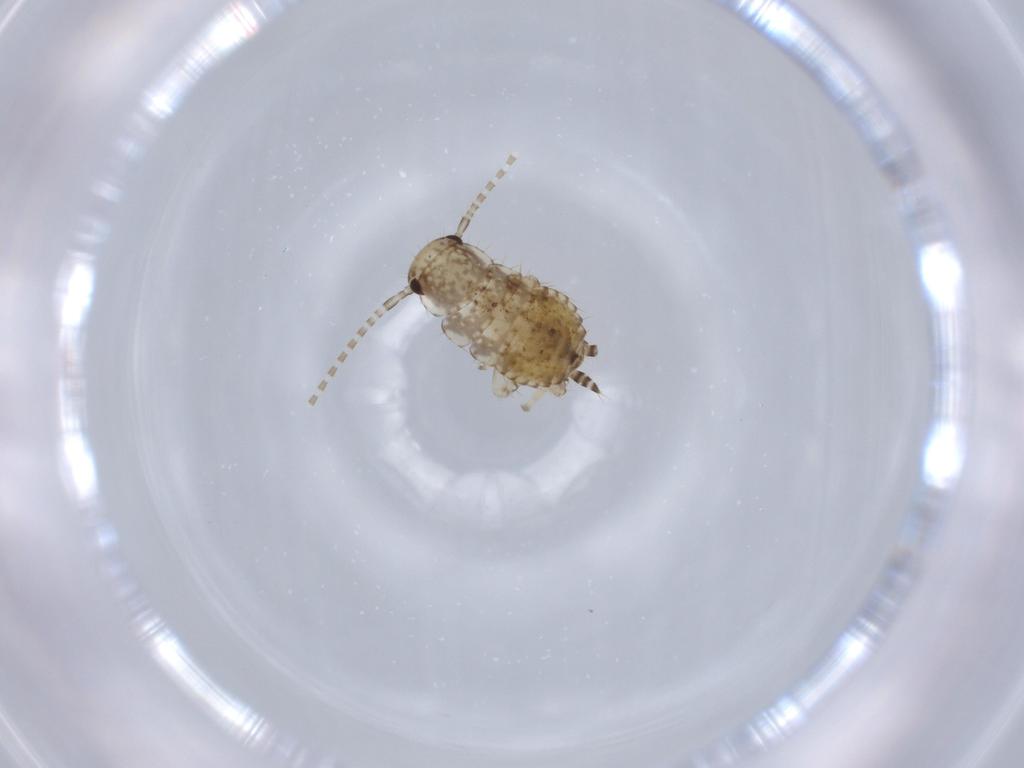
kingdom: Animalia
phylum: Arthropoda
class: Insecta
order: Blattodea
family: Ectobiidae
